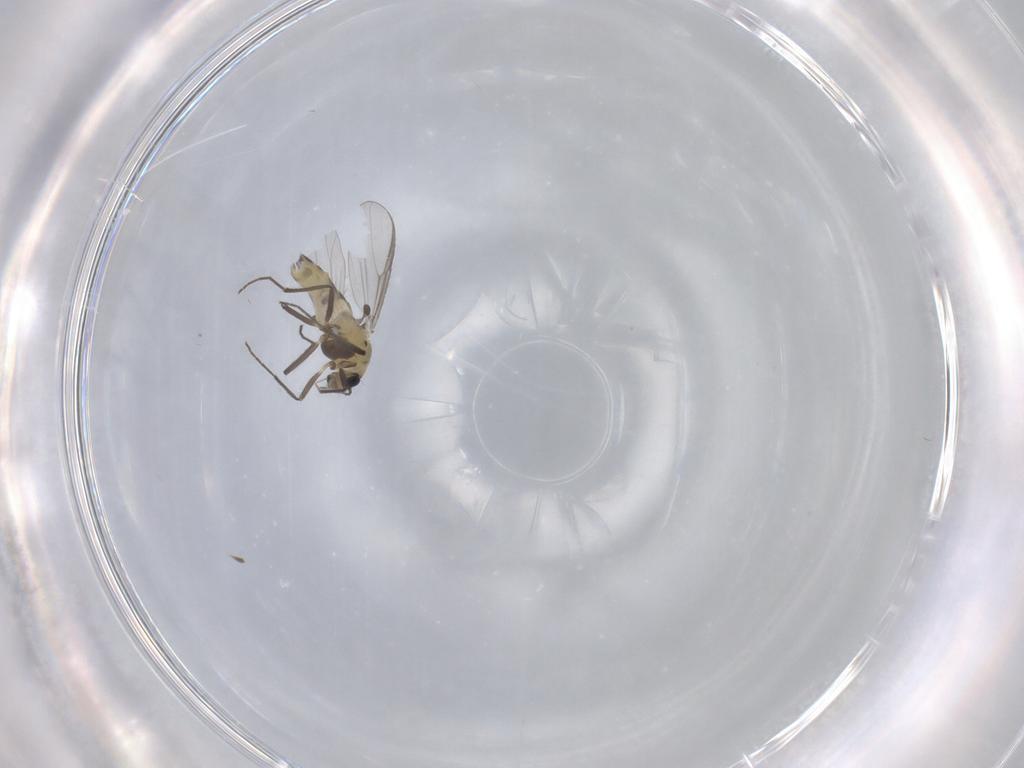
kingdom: Animalia
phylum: Arthropoda
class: Insecta
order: Diptera
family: Chironomidae
